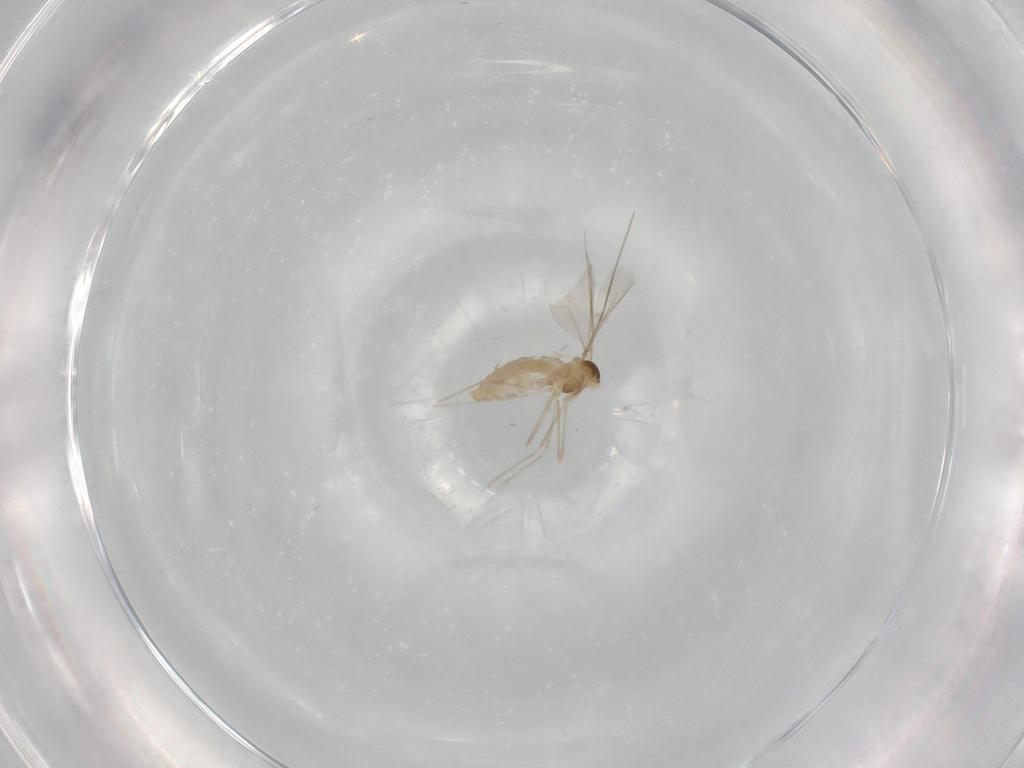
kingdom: Animalia
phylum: Arthropoda
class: Insecta
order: Diptera
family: Cecidomyiidae
